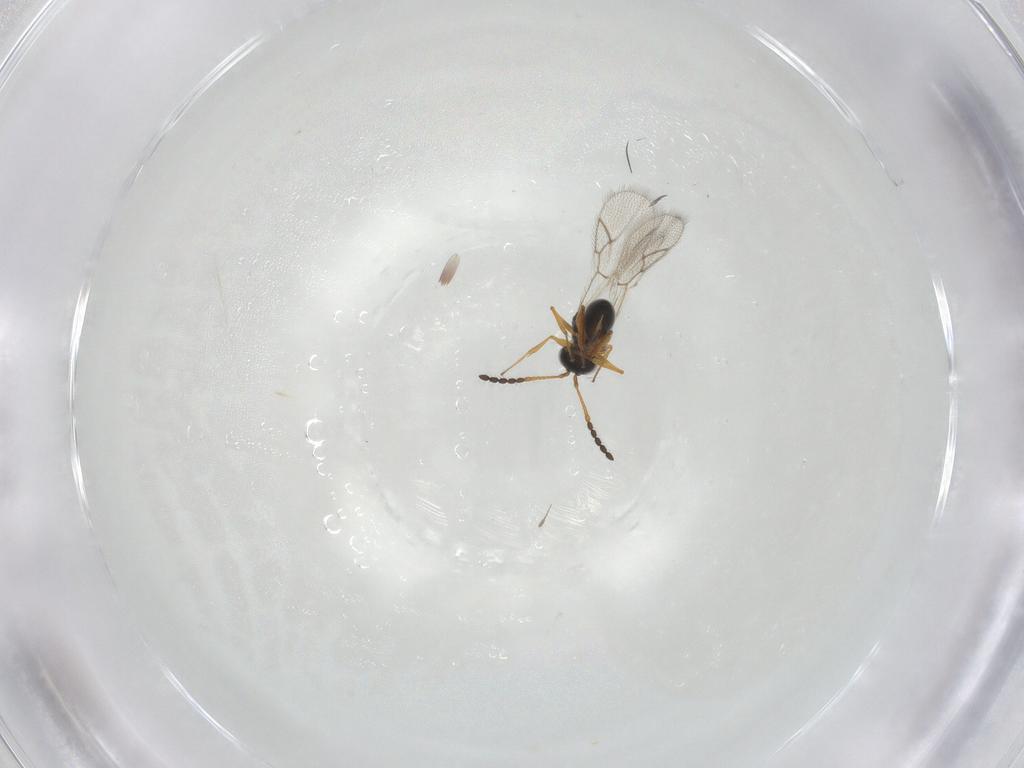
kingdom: Animalia
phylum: Arthropoda
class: Insecta
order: Hymenoptera
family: Figitidae
